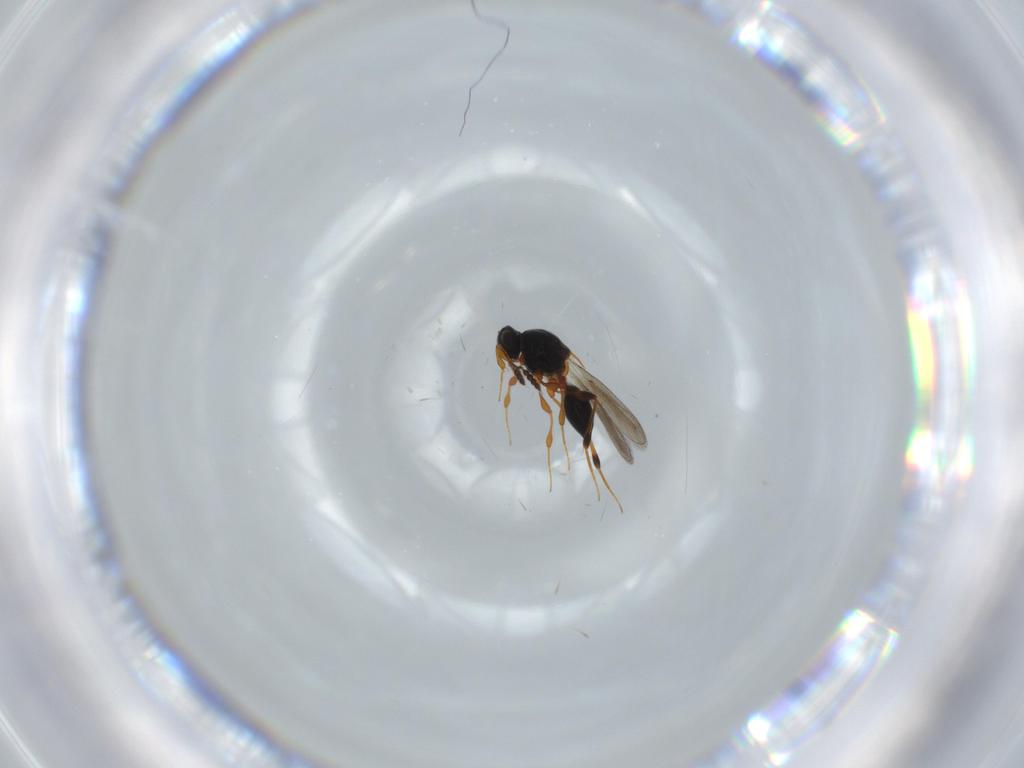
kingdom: Animalia
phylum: Arthropoda
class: Insecta
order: Hymenoptera
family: Platygastridae
